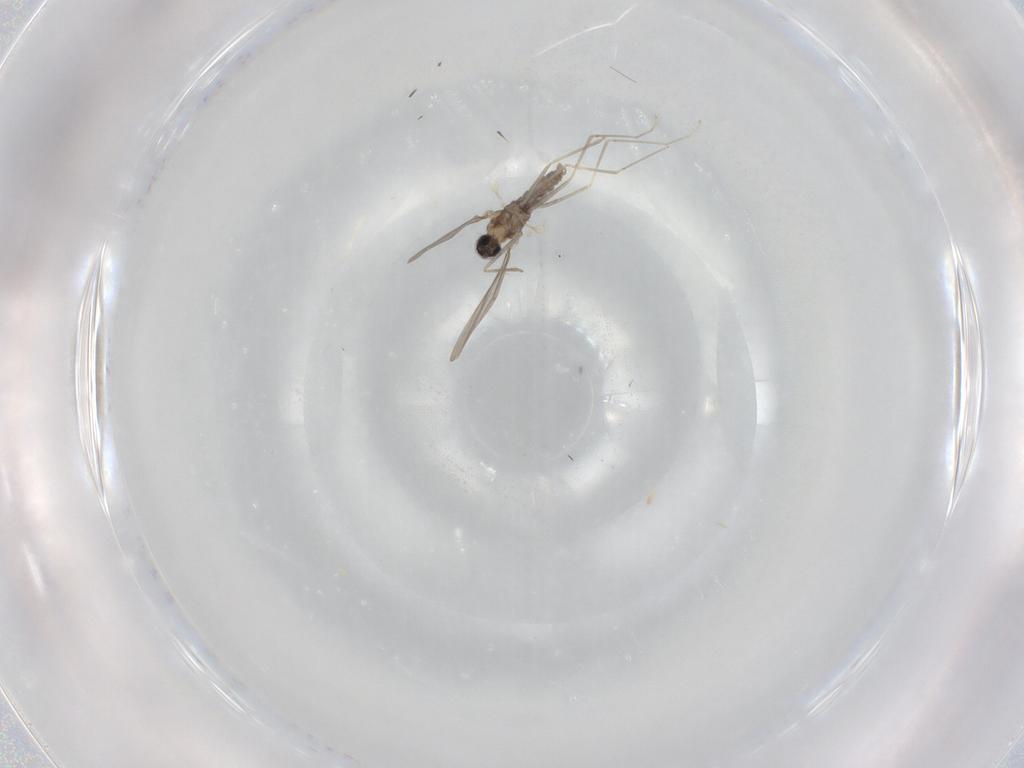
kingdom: Animalia
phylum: Arthropoda
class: Insecta
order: Diptera
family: Cecidomyiidae
